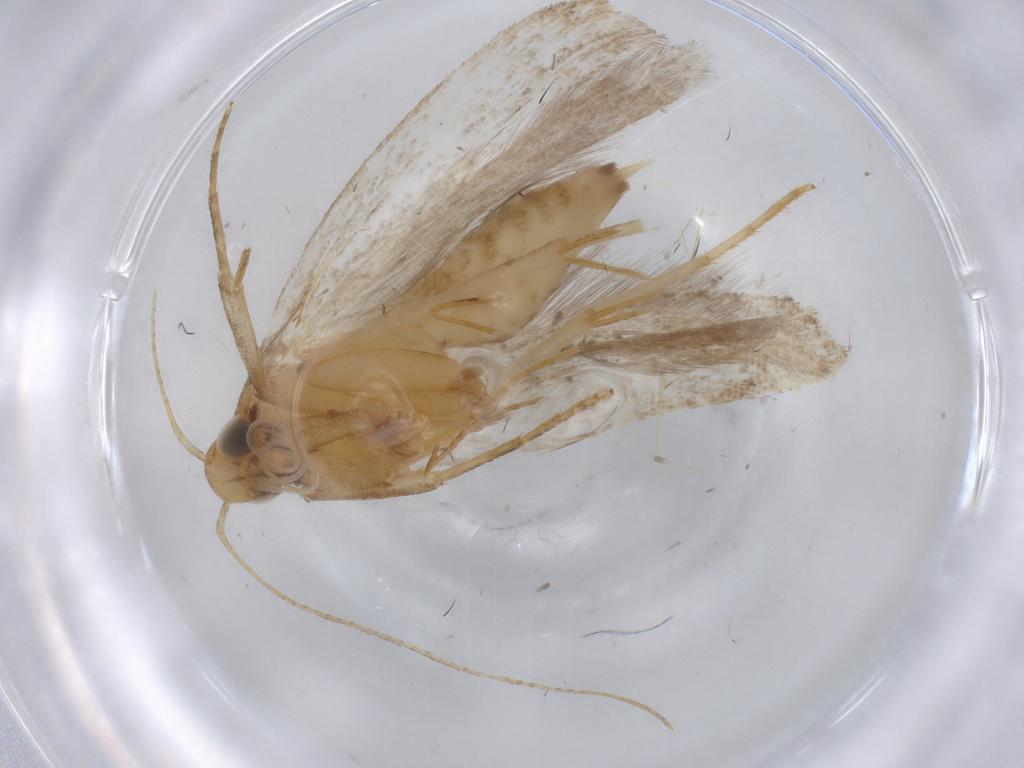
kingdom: Animalia
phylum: Arthropoda
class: Insecta
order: Lepidoptera
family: Gelechiidae
